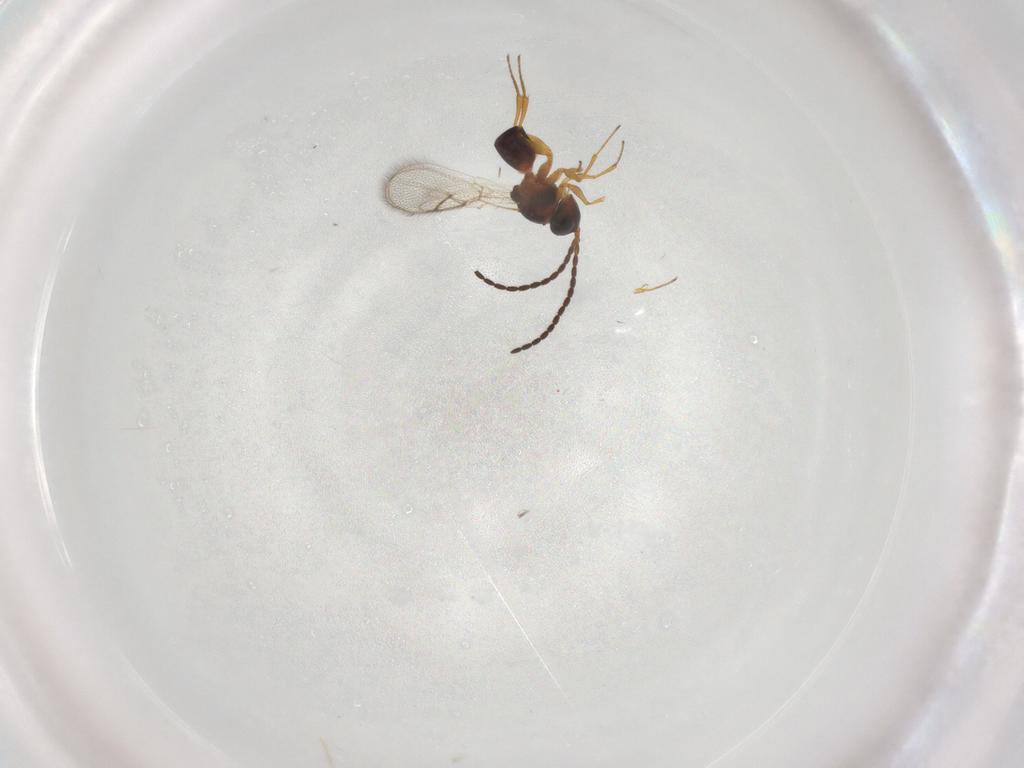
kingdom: Animalia
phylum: Arthropoda
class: Insecta
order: Hymenoptera
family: Figitidae
